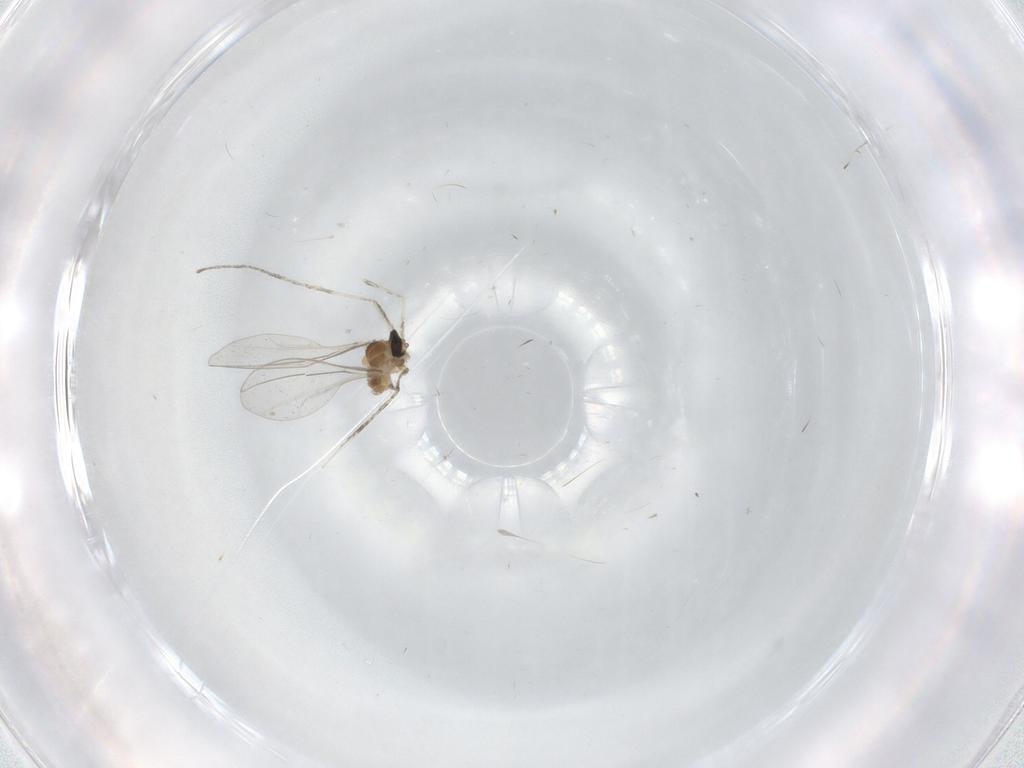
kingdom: Animalia
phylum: Arthropoda
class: Insecta
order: Diptera
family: Cecidomyiidae
